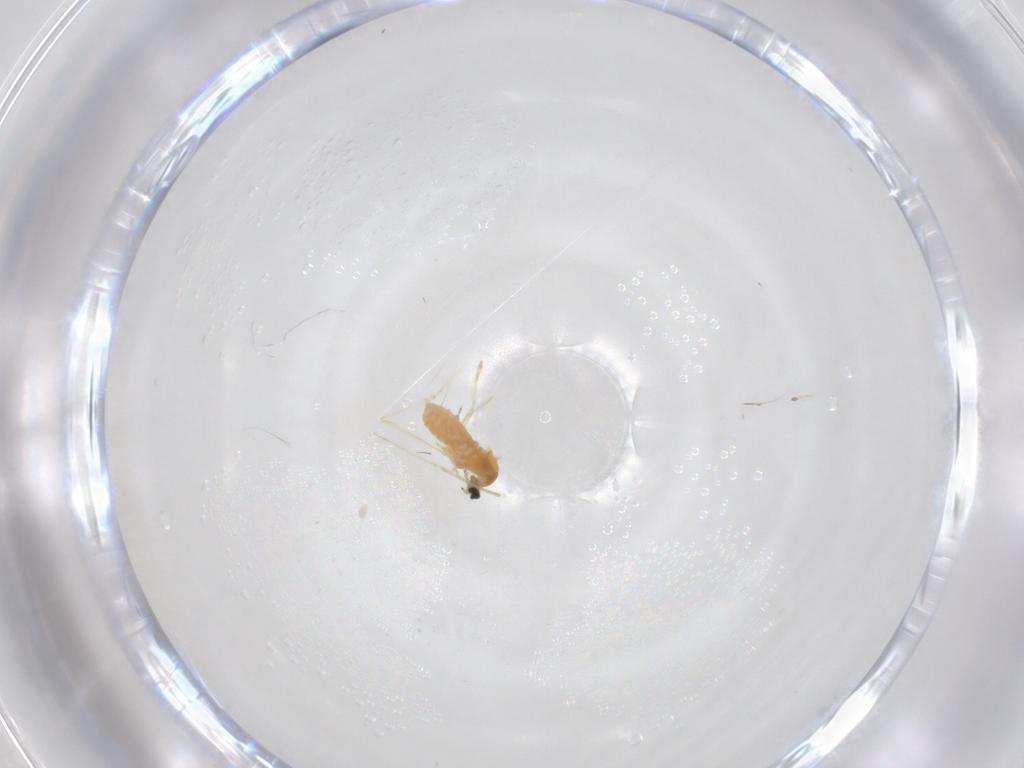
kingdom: Animalia
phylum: Arthropoda
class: Insecta
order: Diptera
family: Cecidomyiidae
